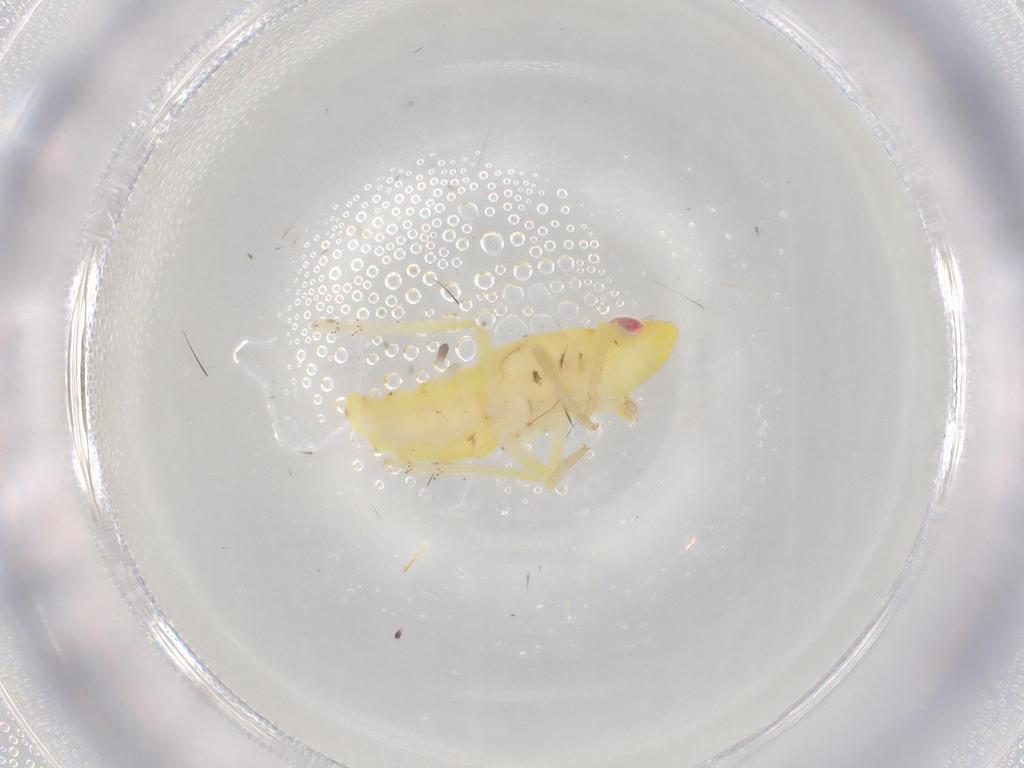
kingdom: Animalia
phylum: Arthropoda
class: Insecta
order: Hemiptera
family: Tropiduchidae
